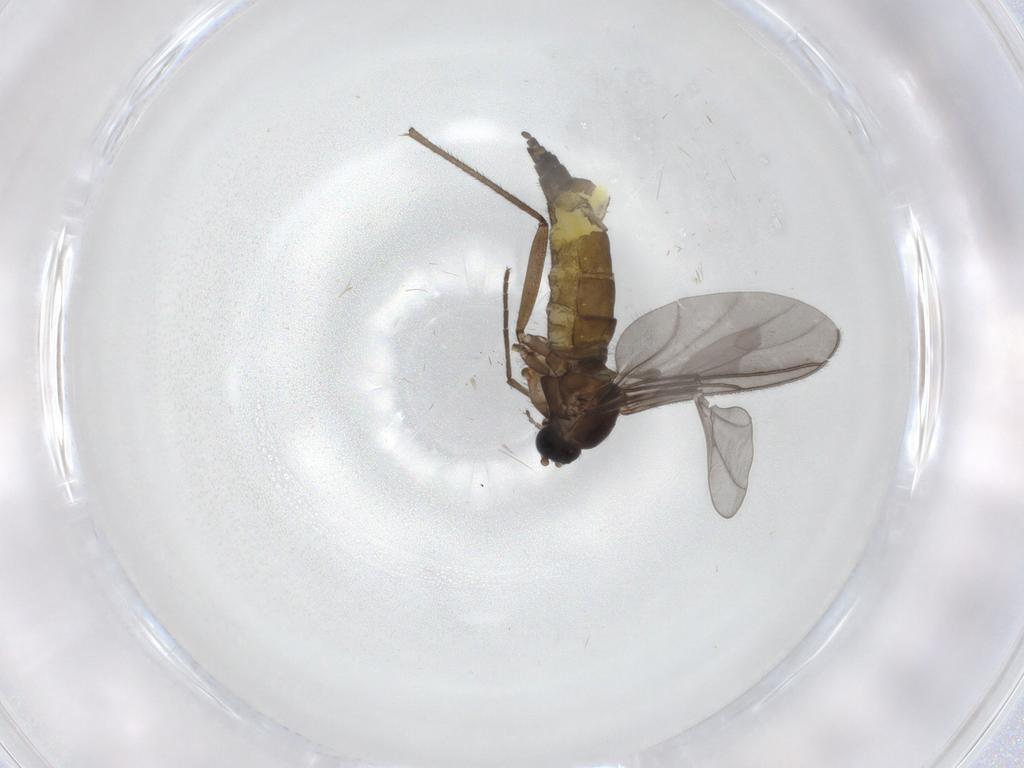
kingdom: Animalia
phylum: Arthropoda
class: Insecta
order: Diptera
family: Sciaridae
